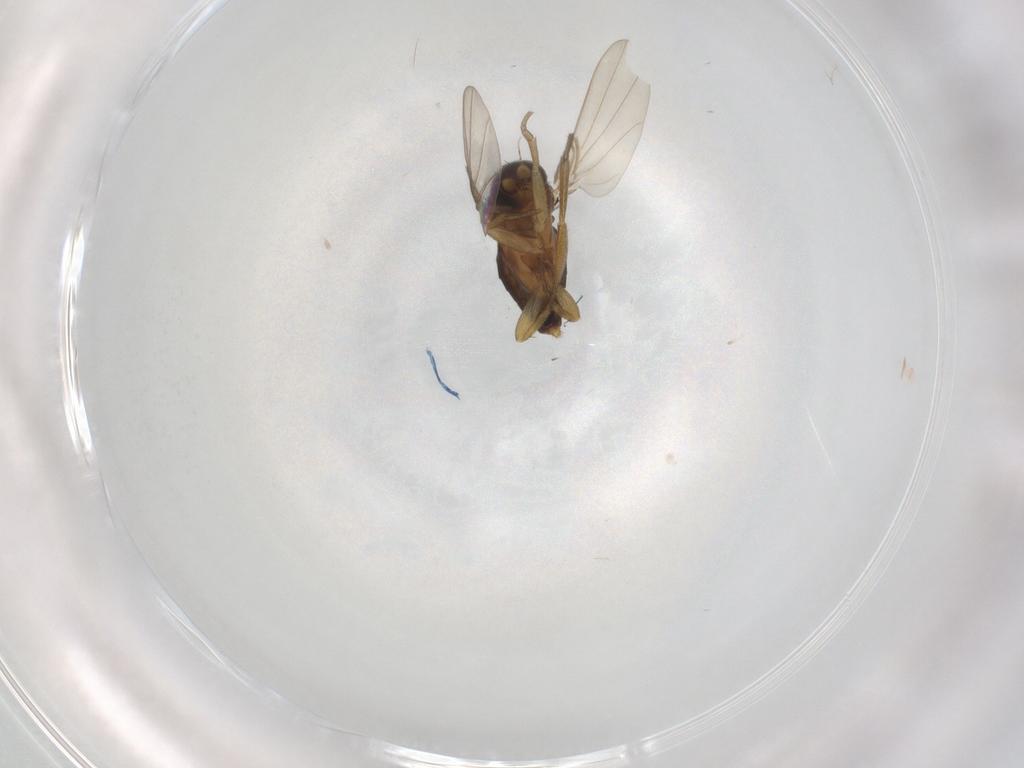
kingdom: Animalia
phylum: Arthropoda
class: Insecta
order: Diptera
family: Phoridae
